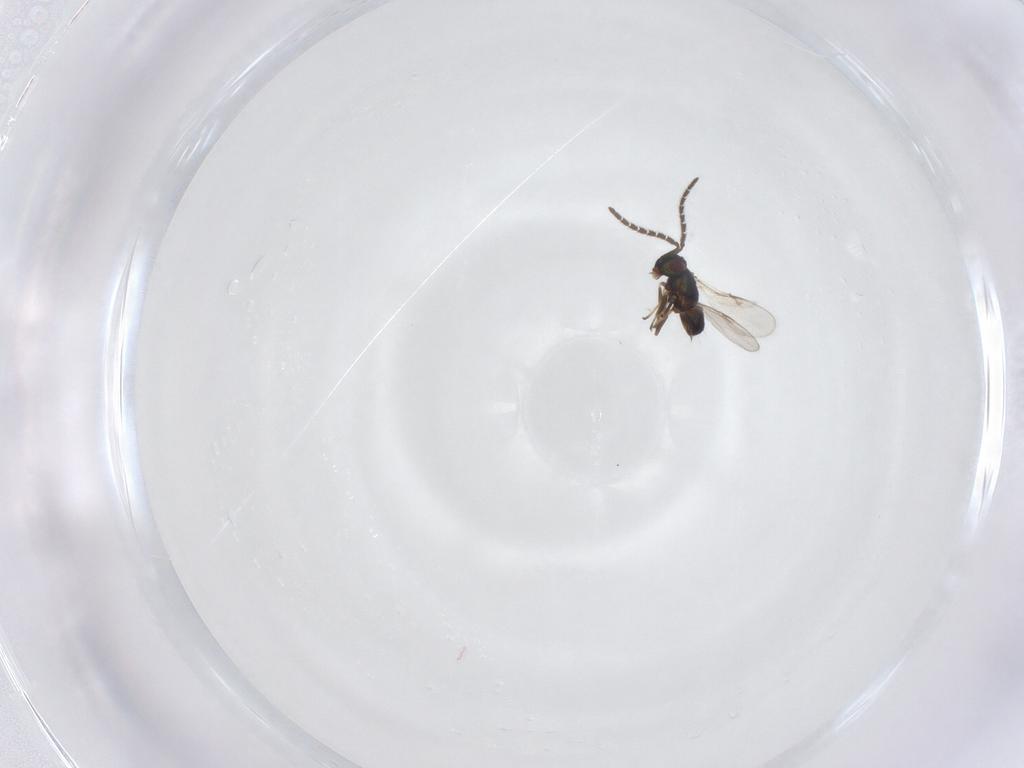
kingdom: Animalia
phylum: Arthropoda
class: Insecta
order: Hymenoptera
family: Encyrtidae
